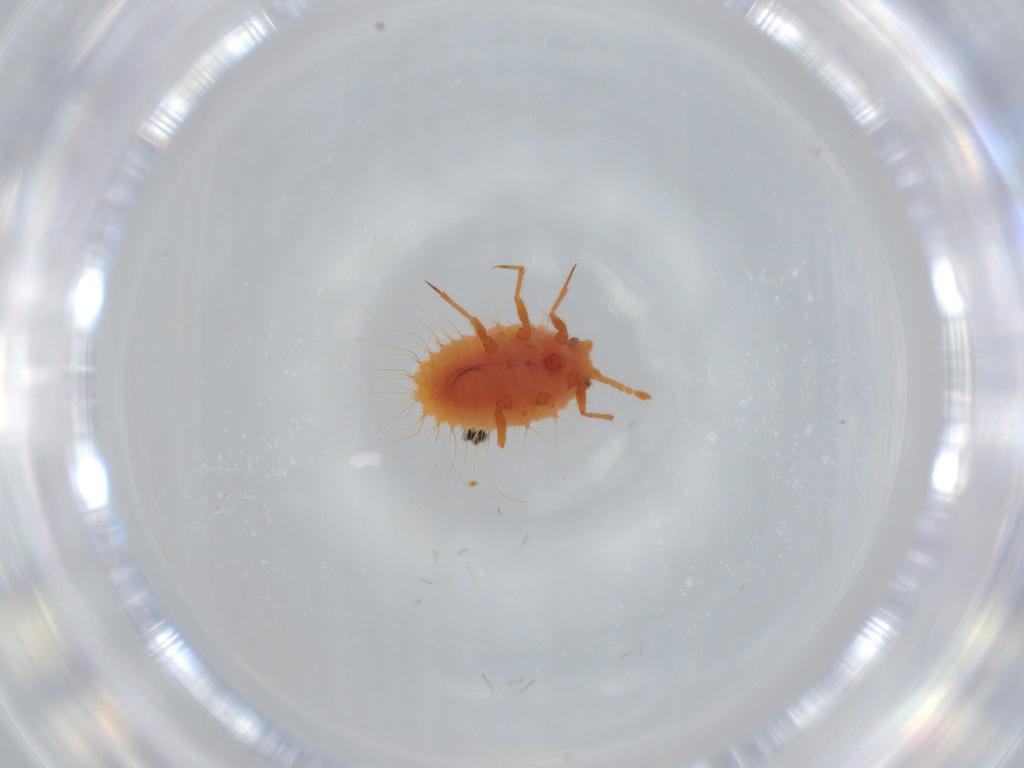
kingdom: Animalia
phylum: Arthropoda
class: Insecta
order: Hemiptera
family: Coccoidea_incertae_sedis
